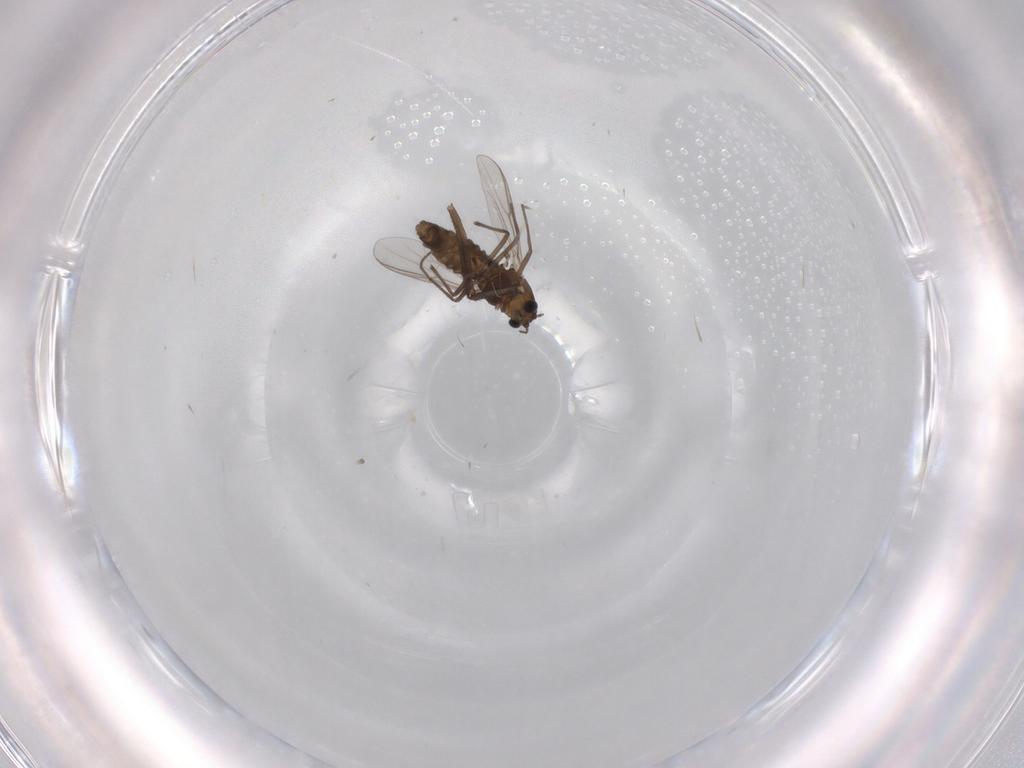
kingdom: Animalia
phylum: Arthropoda
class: Insecta
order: Diptera
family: Chironomidae
